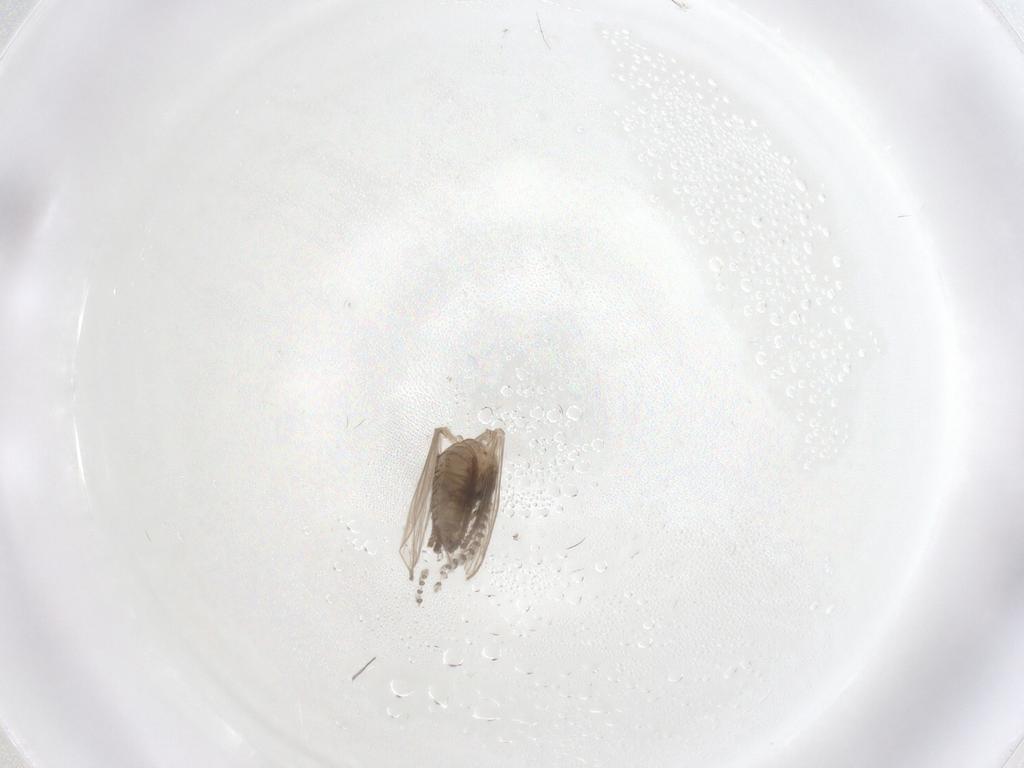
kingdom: Animalia
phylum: Arthropoda
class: Insecta
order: Diptera
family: Psychodidae
